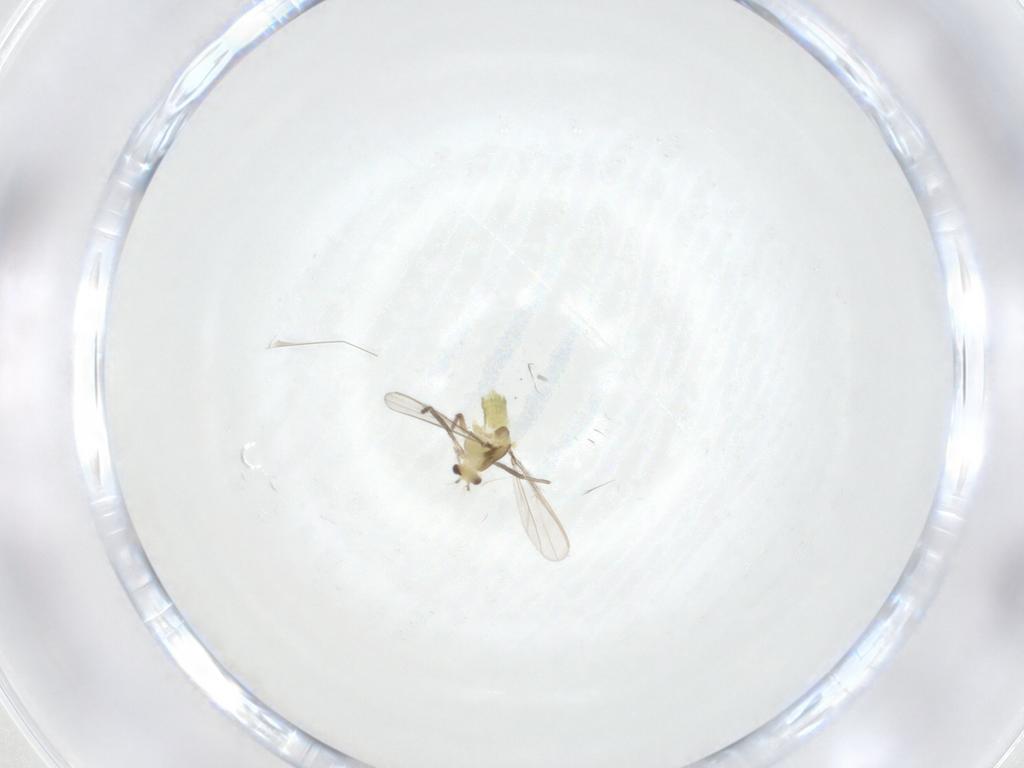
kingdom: Animalia
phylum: Arthropoda
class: Insecta
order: Diptera
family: Chironomidae
